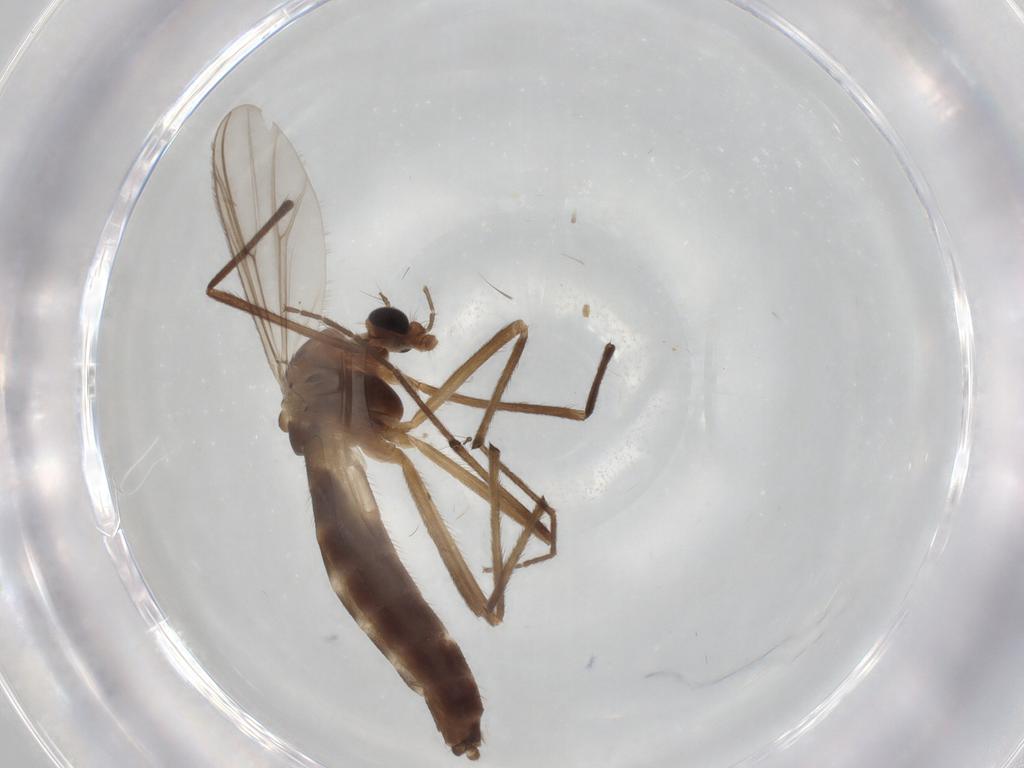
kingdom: Animalia
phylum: Arthropoda
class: Insecta
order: Diptera
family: Chironomidae
